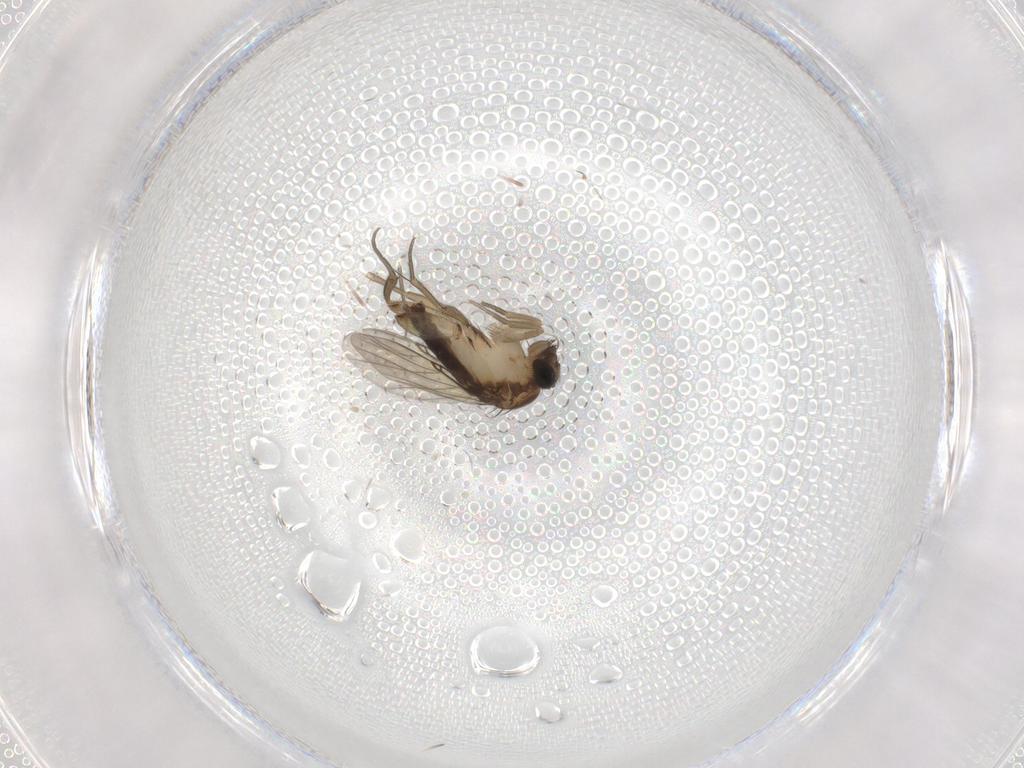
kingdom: Animalia
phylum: Arthropoda
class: Insecta
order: Diptera
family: Phoridae
